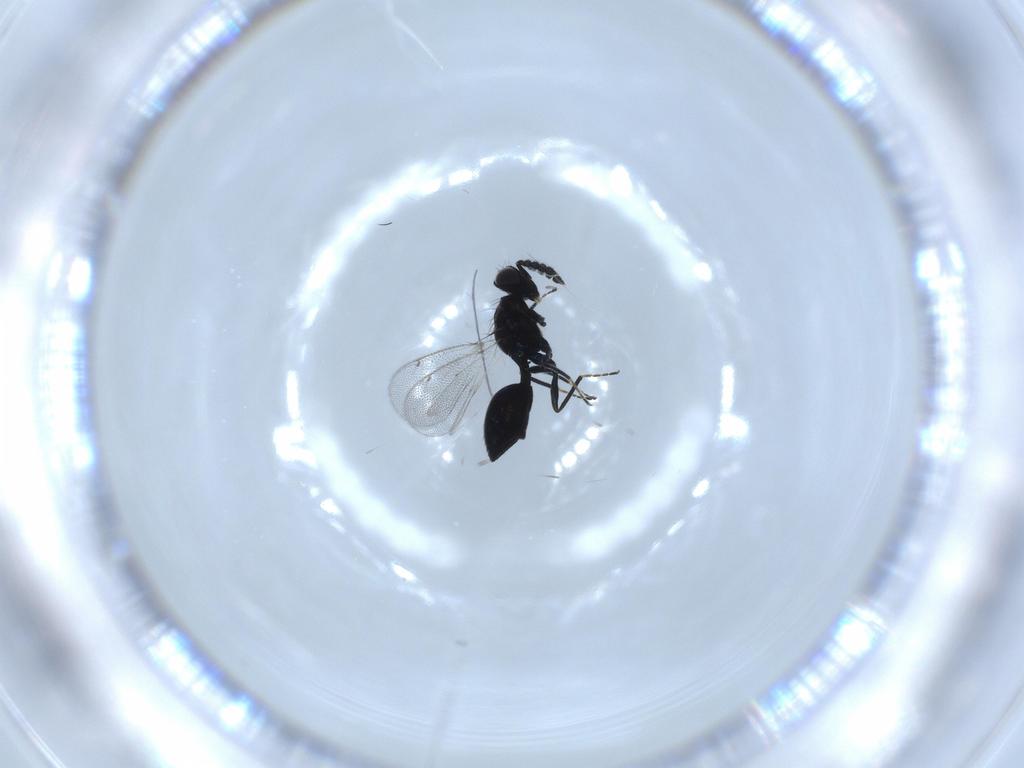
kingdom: Animalia
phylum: Arthropoda
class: Insecta
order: Hymenoptera
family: Eulophidae
